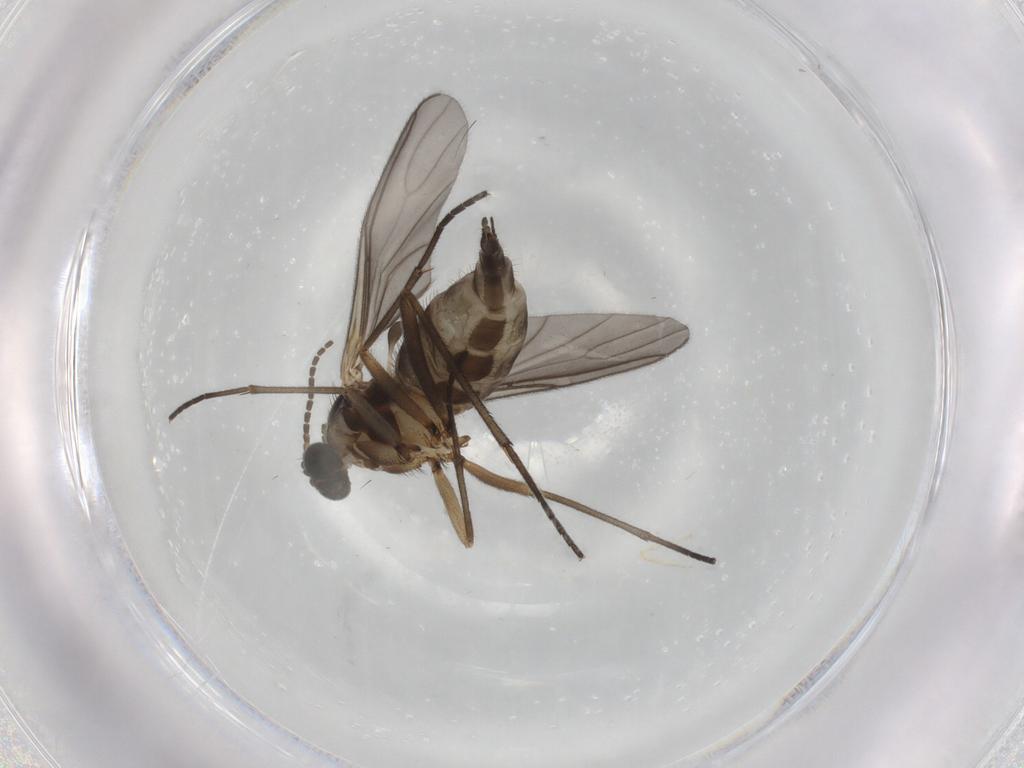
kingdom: Animalia
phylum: Arthropoda
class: Insecta
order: Diptera
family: Sciaridae
